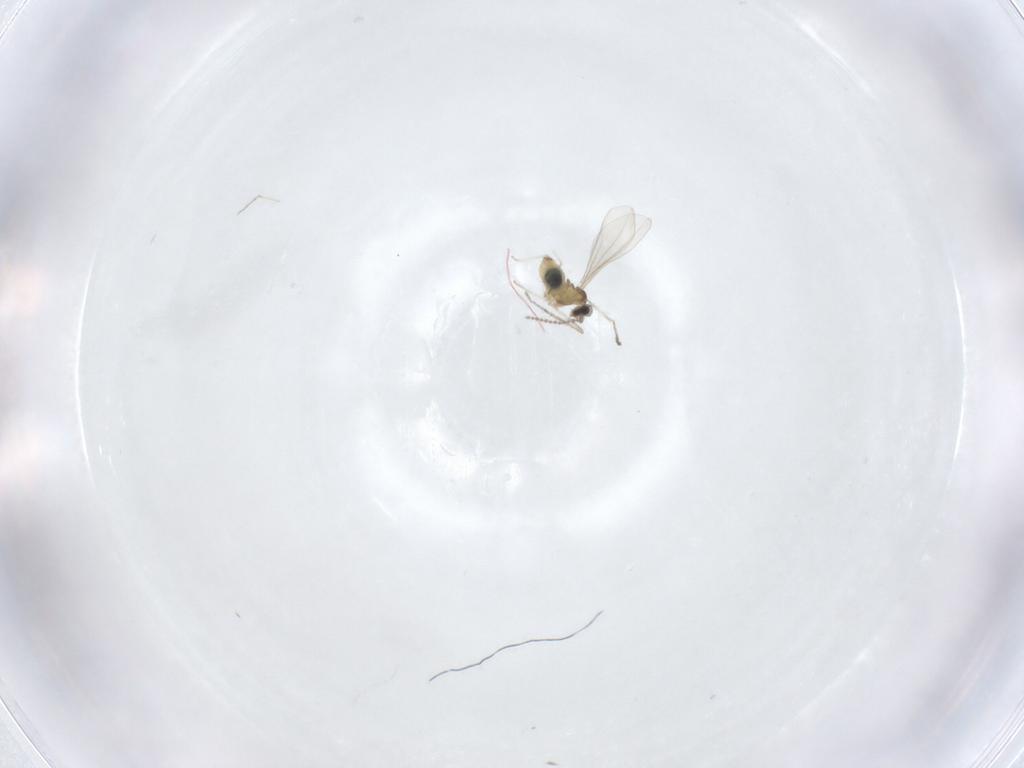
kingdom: Animalia
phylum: Arthropoda
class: Insecta
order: Diptera
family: Cecidomyiidae
